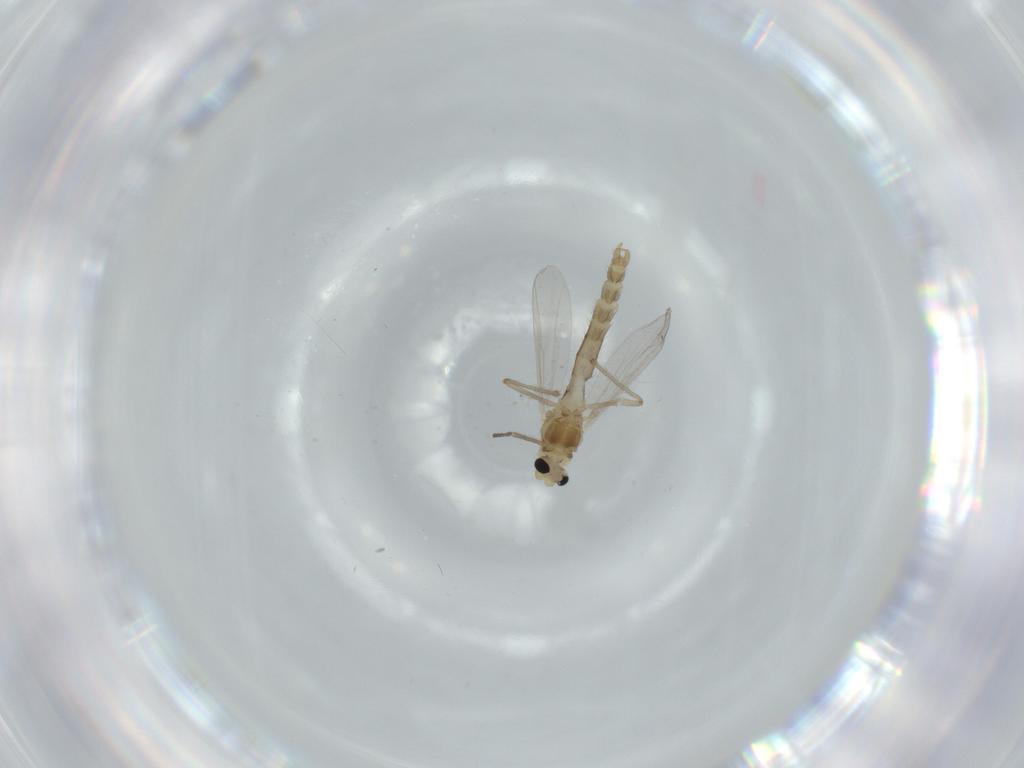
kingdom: Animalia
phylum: Arthropoda
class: Insecta
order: Diptera
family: Chironomidae
